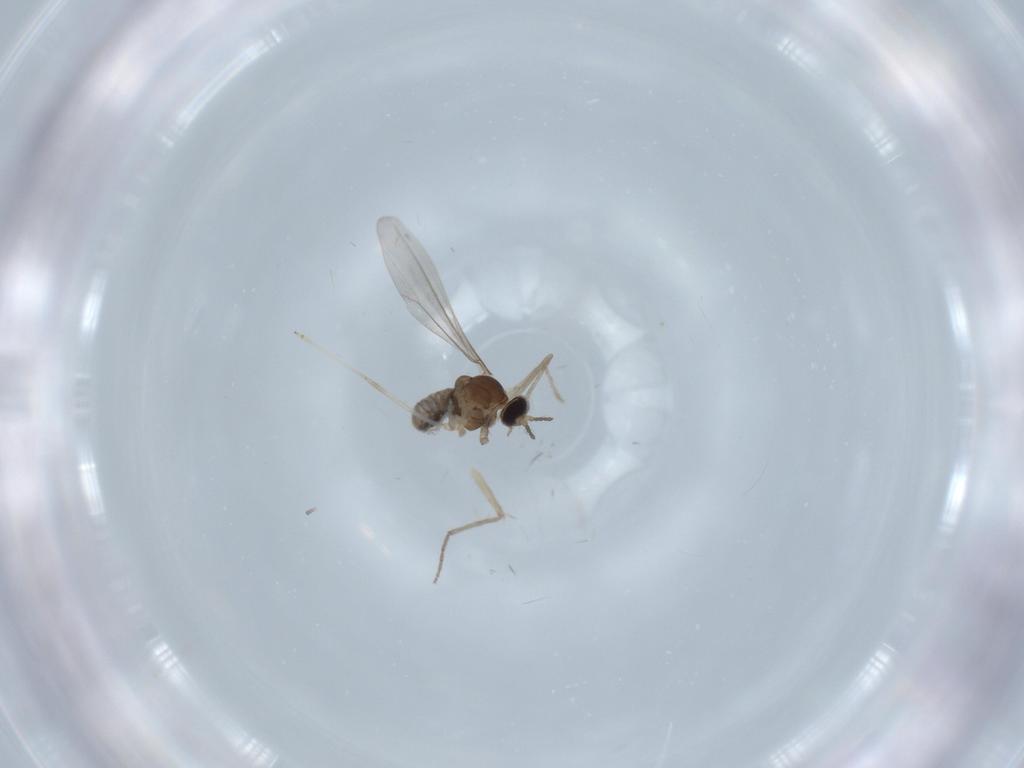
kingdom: Animalia
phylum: Arthropoda
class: Insecta
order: Diptera
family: Cecidomyiidae
